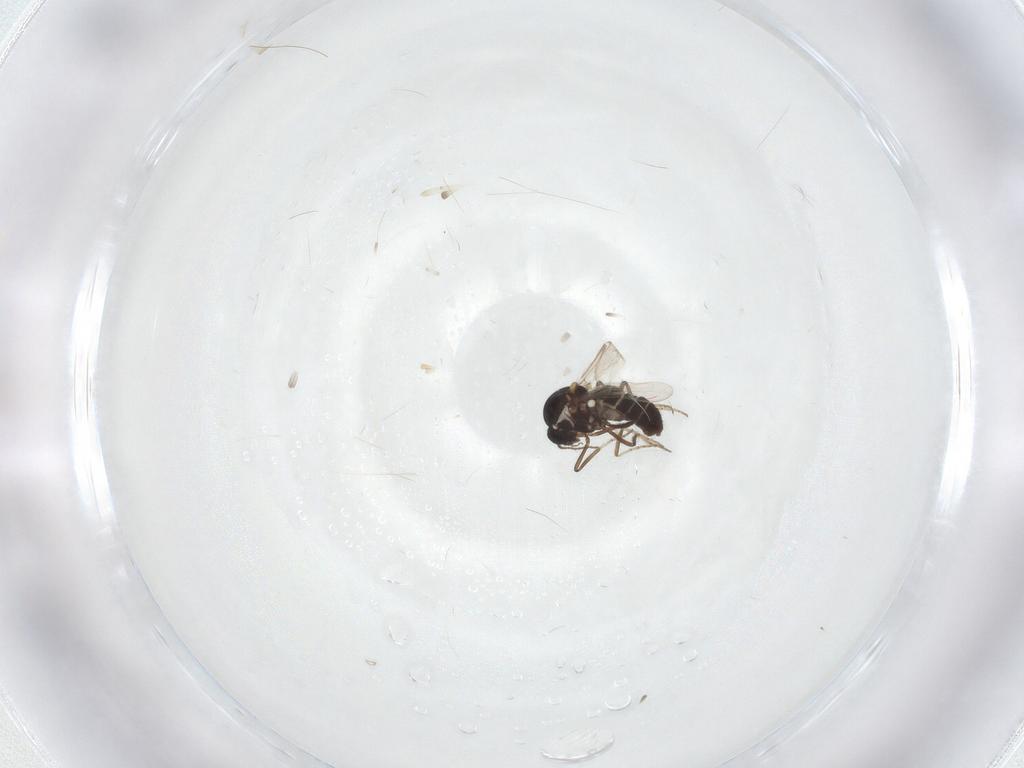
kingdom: Animalia
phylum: Arthropoda
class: Insecta
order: Diptera
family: Ceratopogonidae
